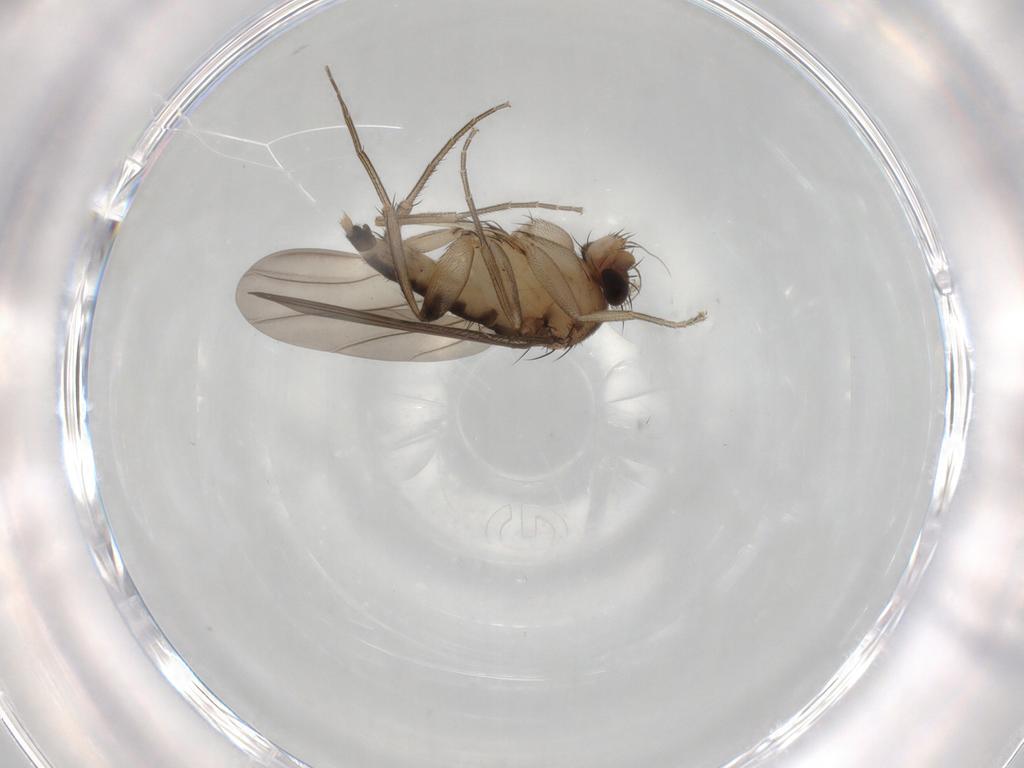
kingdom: Animalia
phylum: Arthropoda
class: Insecta
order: Diptera
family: Phoridae
